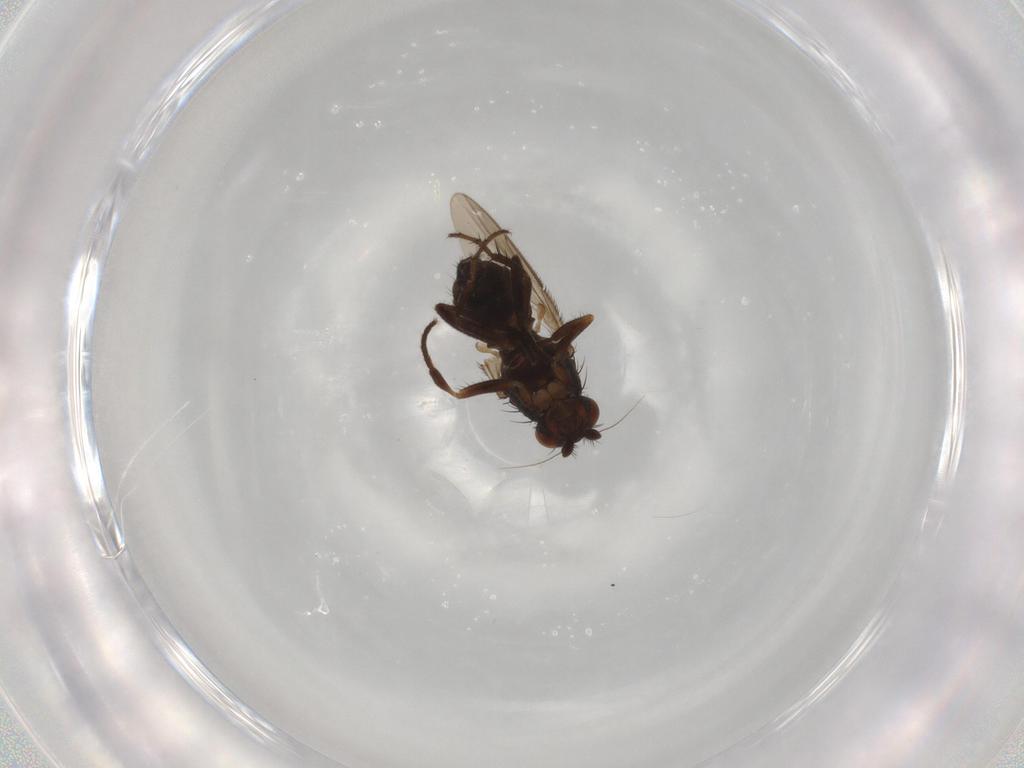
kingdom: Animalia
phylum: Arthropoda
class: Insecta
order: Diptera
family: Sphaeroceridae
